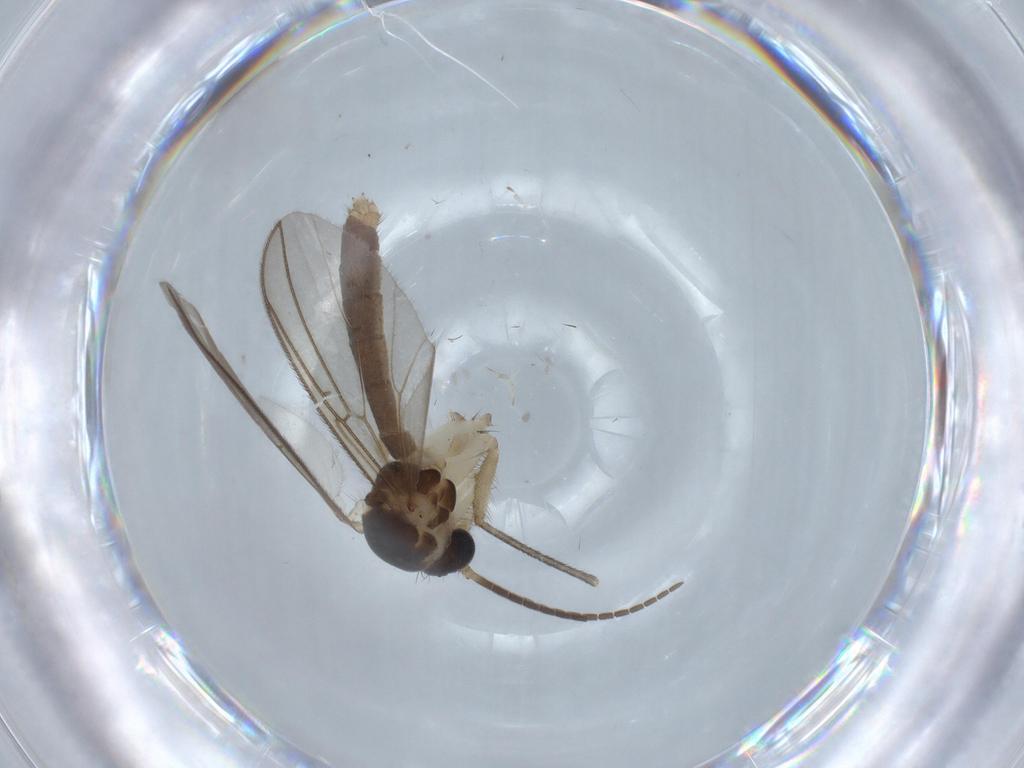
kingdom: Animalia
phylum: Arthropoda
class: Insecta
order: Diptera
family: Mycetophilidae
